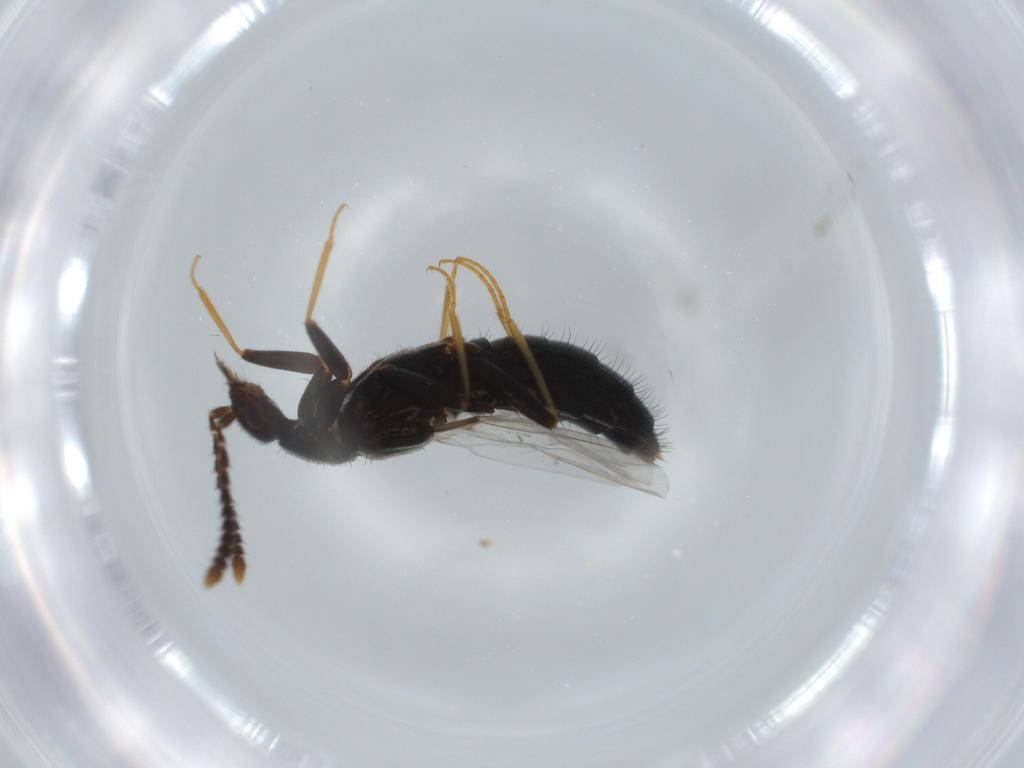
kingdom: Animalia
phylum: Arthropoda
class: Insecta
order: Coleoptera
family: Staphylinidae
